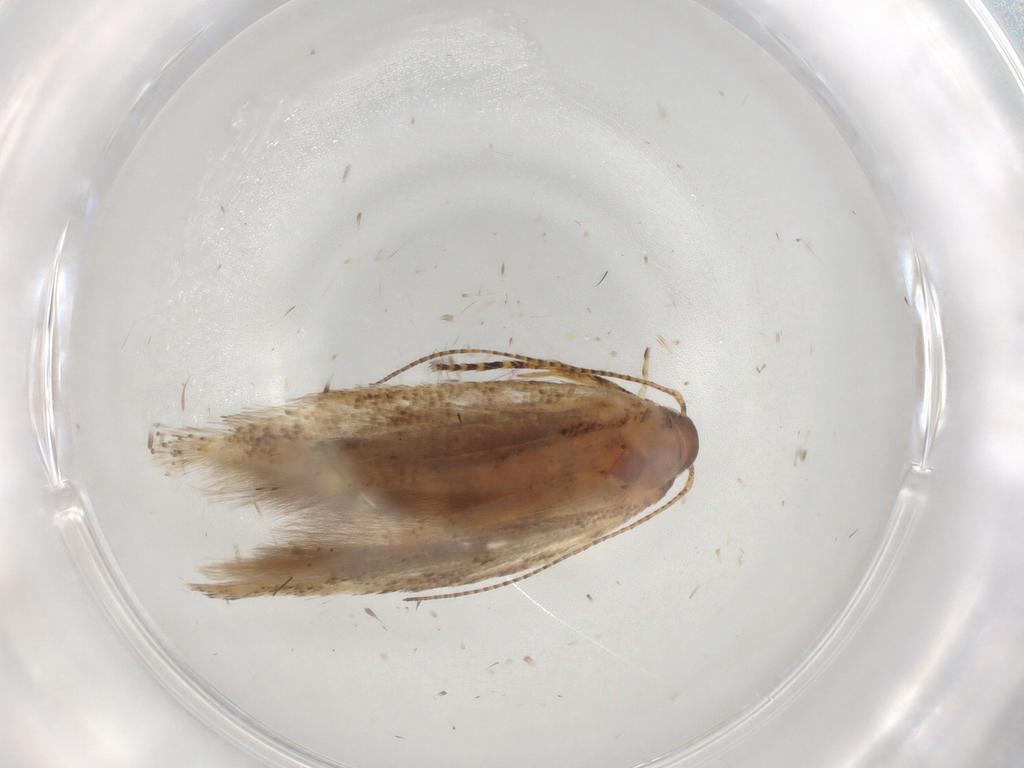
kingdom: Animalia
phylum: Arthropoda
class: Insecta
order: Lepidoptera
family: Gelechiidae
